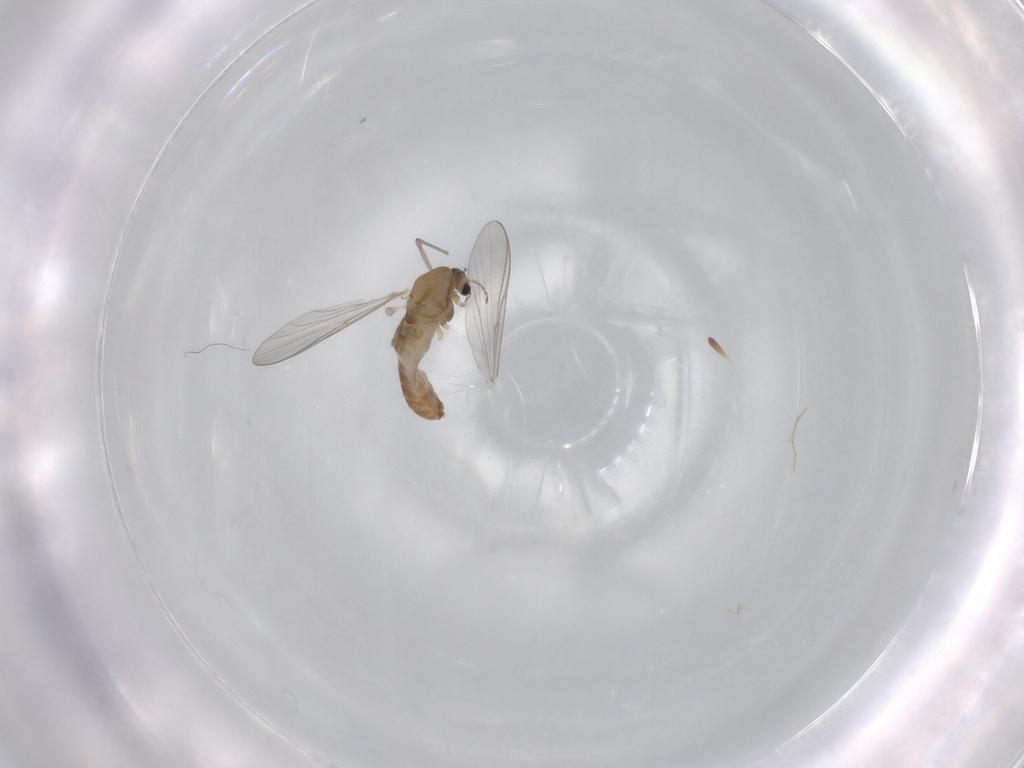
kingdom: Animalia
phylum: Arthropoda
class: Insecta
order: Diptera
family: Chironomidae
